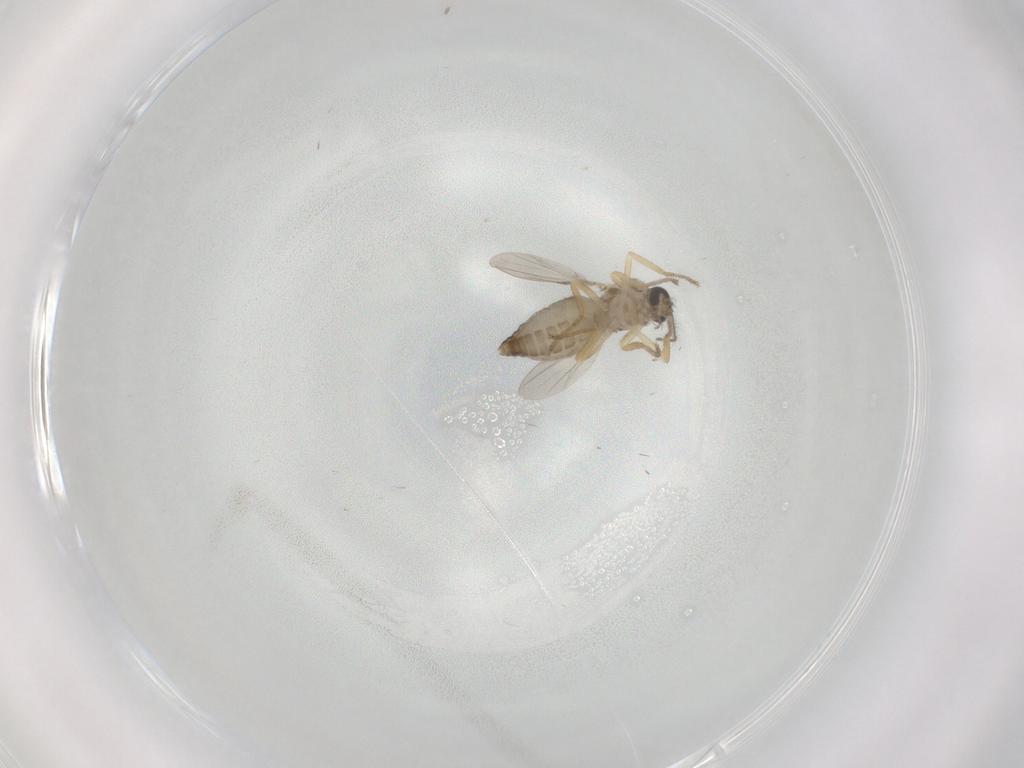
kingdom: Animalia
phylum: Arthropoda
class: Insecta
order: Diptera
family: Ceratopogonidae
